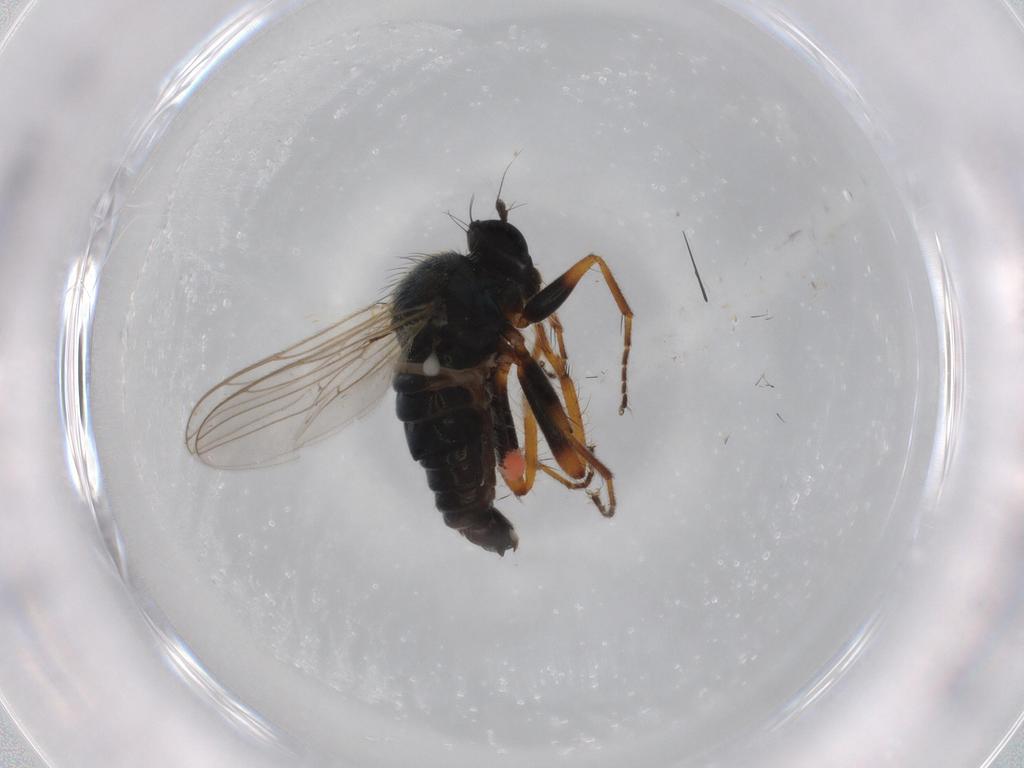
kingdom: Animalia
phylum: Arthropoda
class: Insecta
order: Diptera
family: Hybotidae
